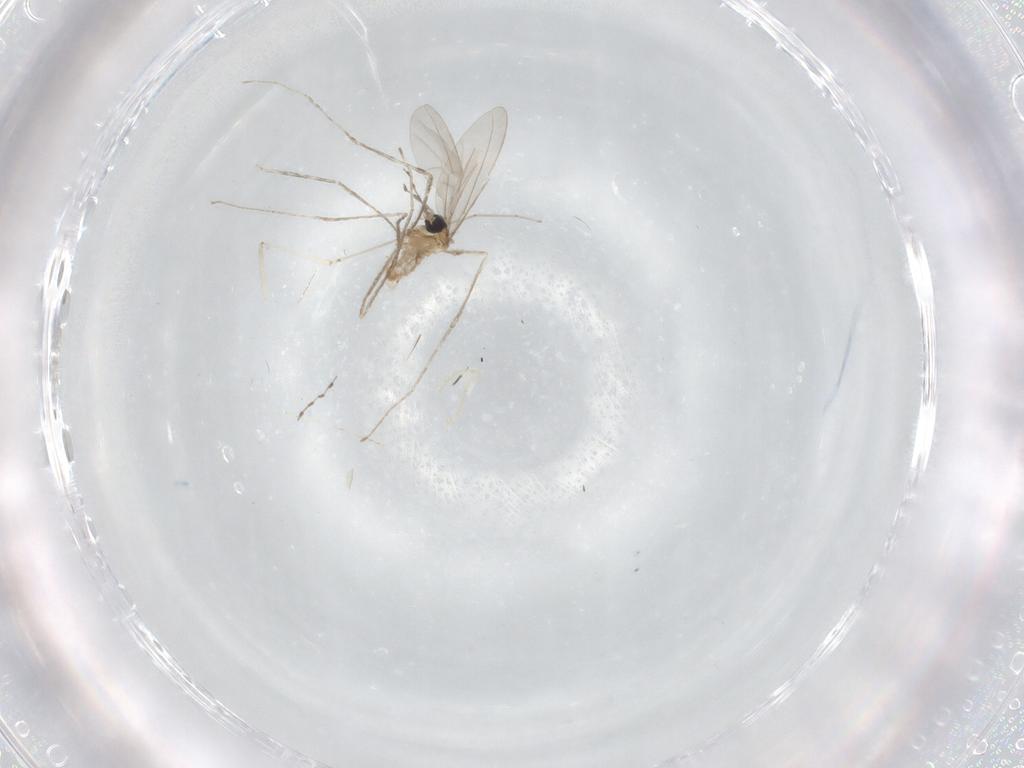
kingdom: Animalia
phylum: Arthropoda
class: Insecta
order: Diptera
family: Cecidomyiidae
